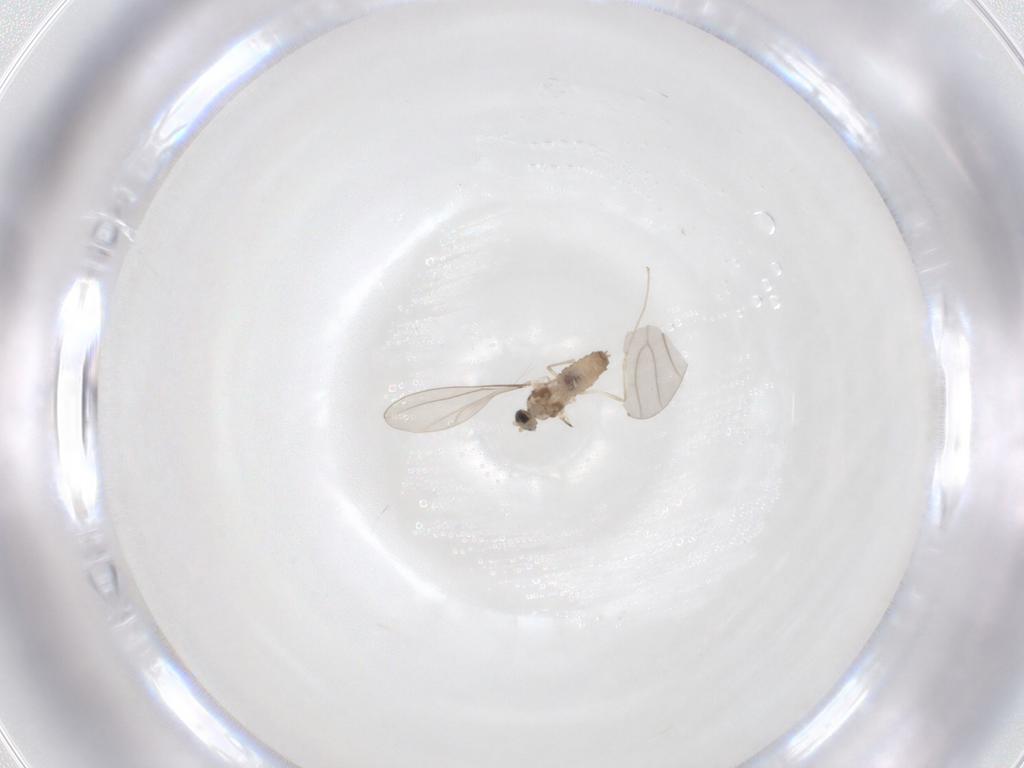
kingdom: Animalia
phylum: Arthropoda
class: Insecta
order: Diptera
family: Cecidomyiidae
